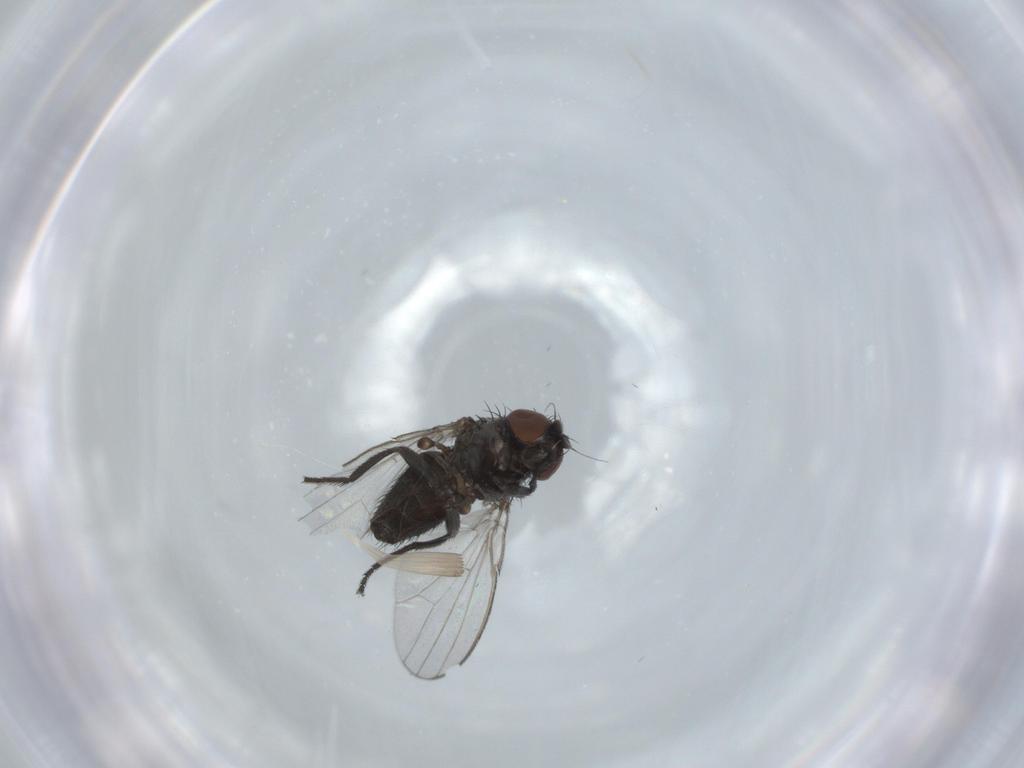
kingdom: Animalia
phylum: Arthropoda
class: Insecta
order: Diptera
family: Milichiidae
